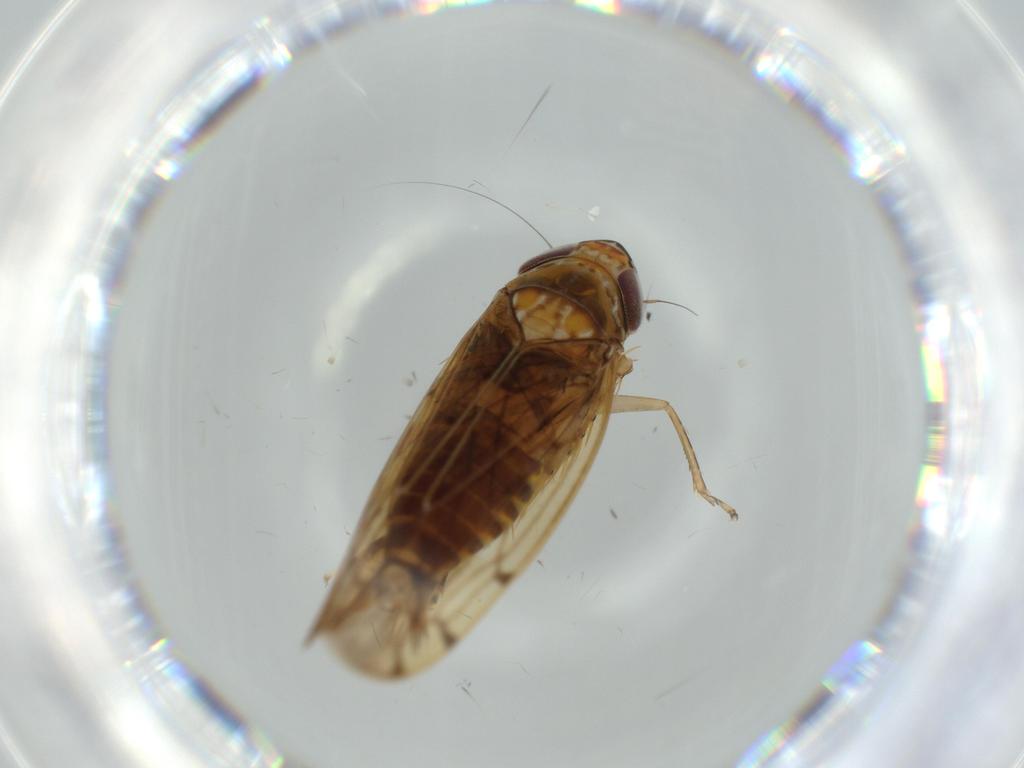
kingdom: Animalia
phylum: Arthropoda
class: Insecta
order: Hemiptera
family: Cicadellidae
